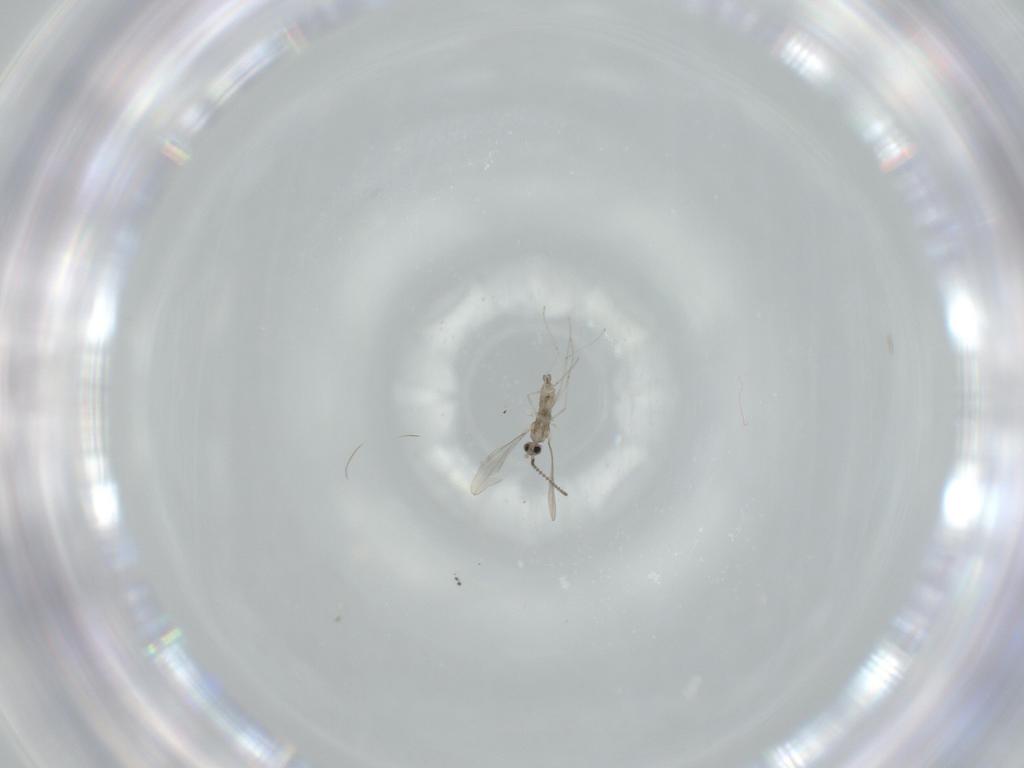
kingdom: Animalia
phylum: Arthropoda
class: Insecta
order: Diptera
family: Cecidomyiidae
